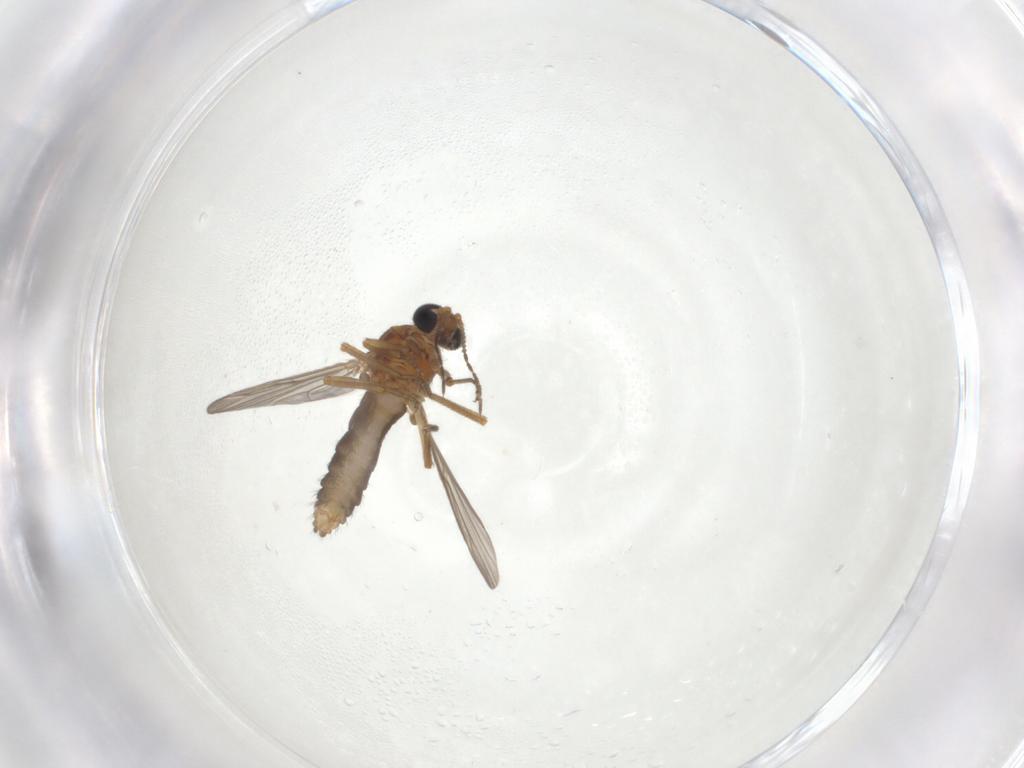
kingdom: Animalia
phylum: Arthropoda
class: Insecta
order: Diptera
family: Ceratopogonidae
